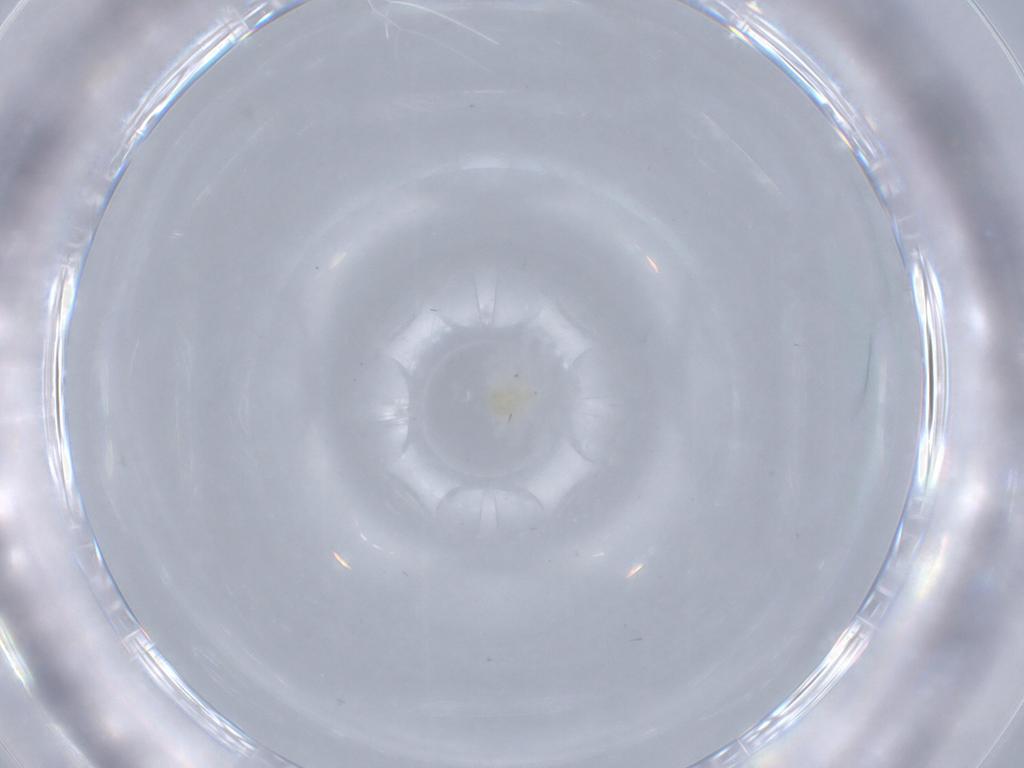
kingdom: Animalia
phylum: Arthropoda
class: Arachnida
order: Trombidiformes
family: Anystidae
